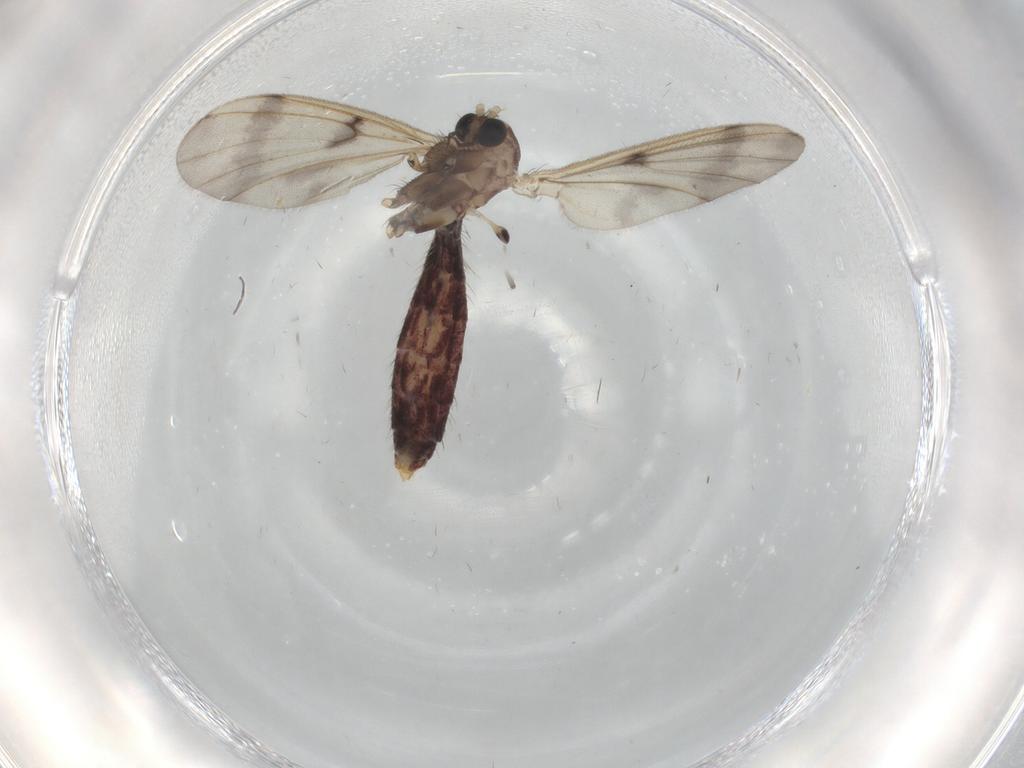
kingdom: Animalia
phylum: Arthropoda
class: Insecta
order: Diptera
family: Mycetophilidae
